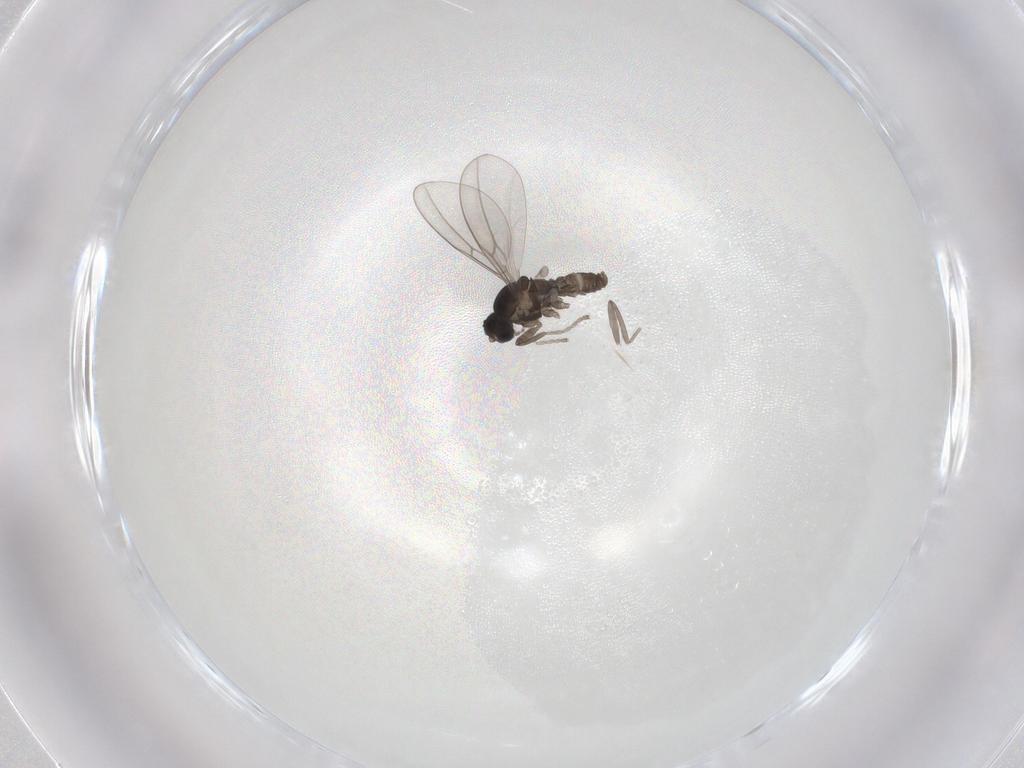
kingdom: Animalia
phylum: Arthropoda
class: Insecta
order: Diptera
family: Cecidomyiidae
